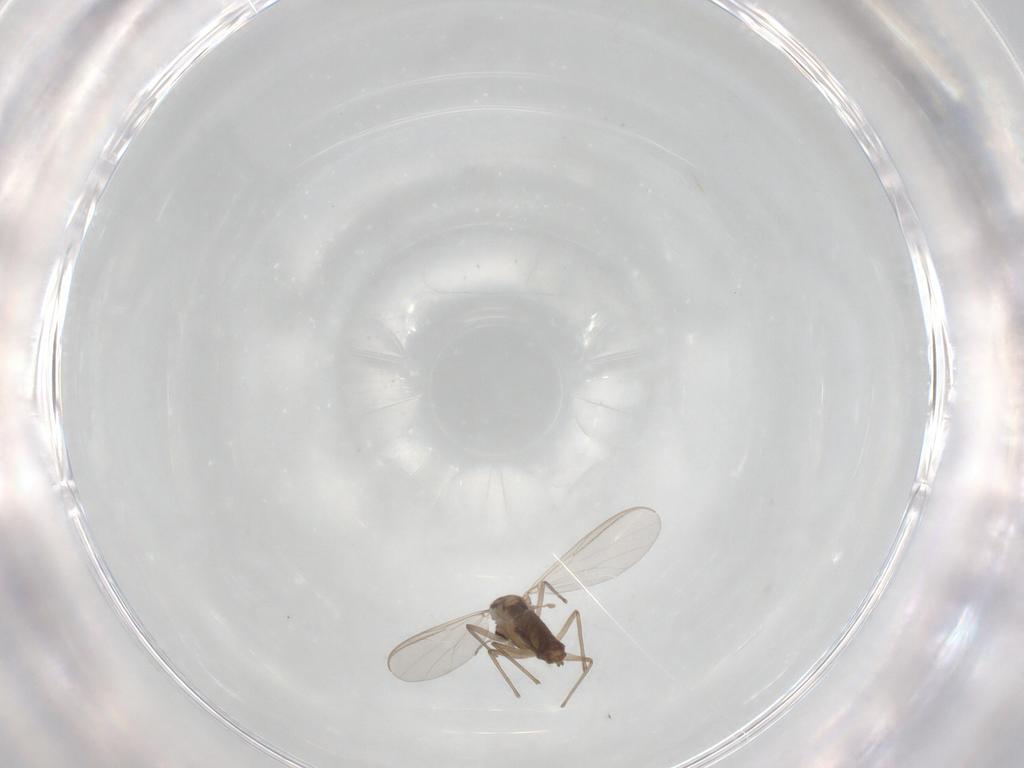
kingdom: Animalia
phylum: Arthropoda
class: Insecta
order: Diptera
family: Chironomidae
